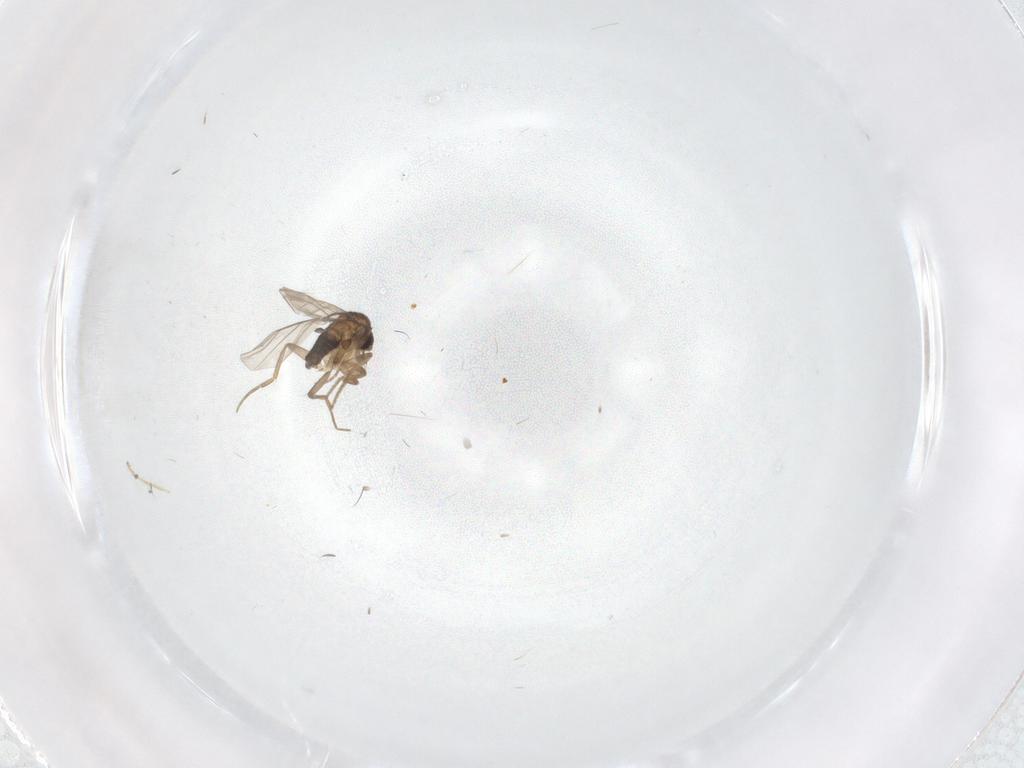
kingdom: Animalia
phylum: Arthropoda
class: Insecta
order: Diptera
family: Phoridae
